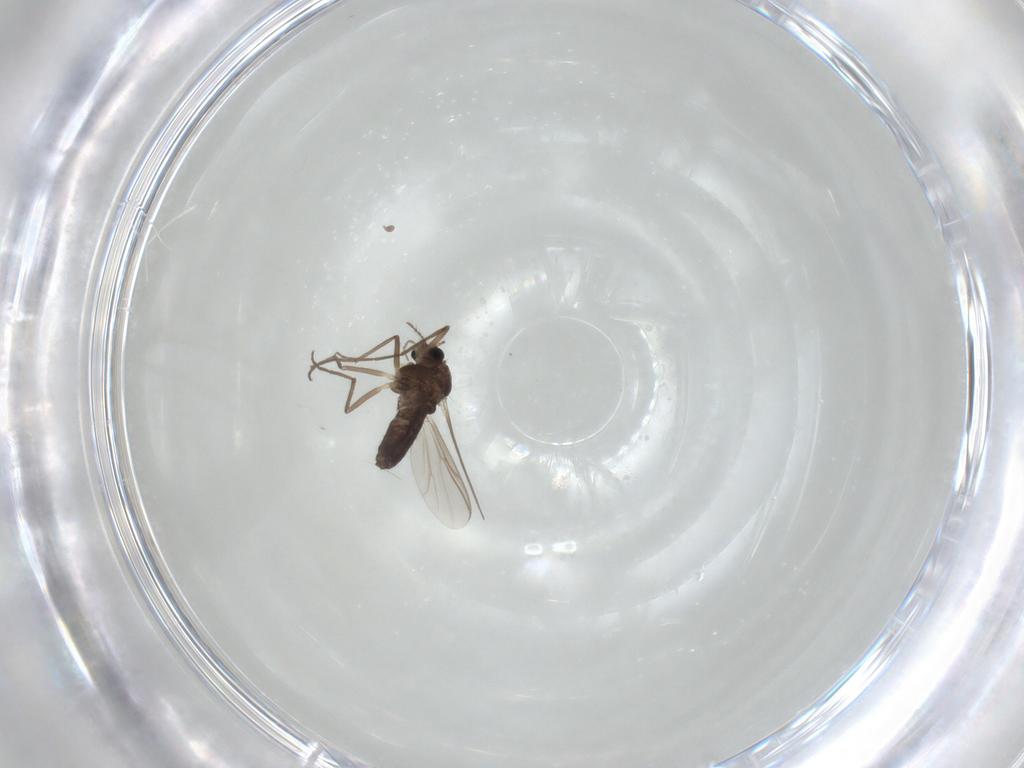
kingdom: Animalia
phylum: Arthropoda
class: Insecta
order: Diptera
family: Chironomidae
